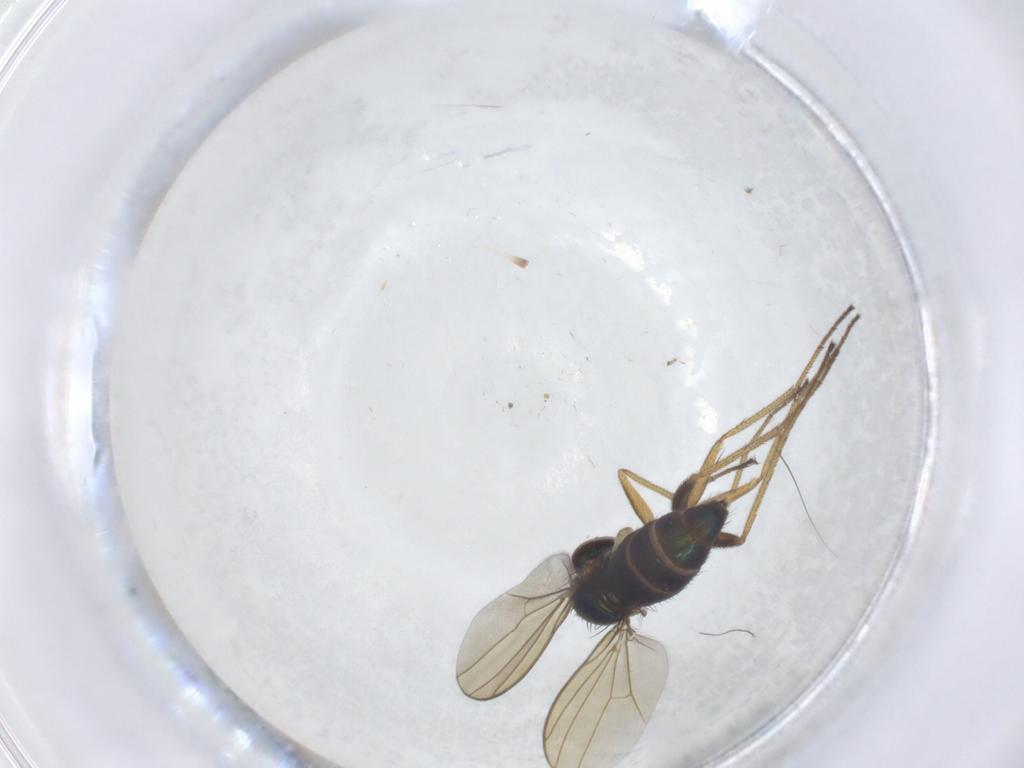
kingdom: Animalia
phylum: Arthropoda
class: Insecta
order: Diptera
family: Dolichopodidae
